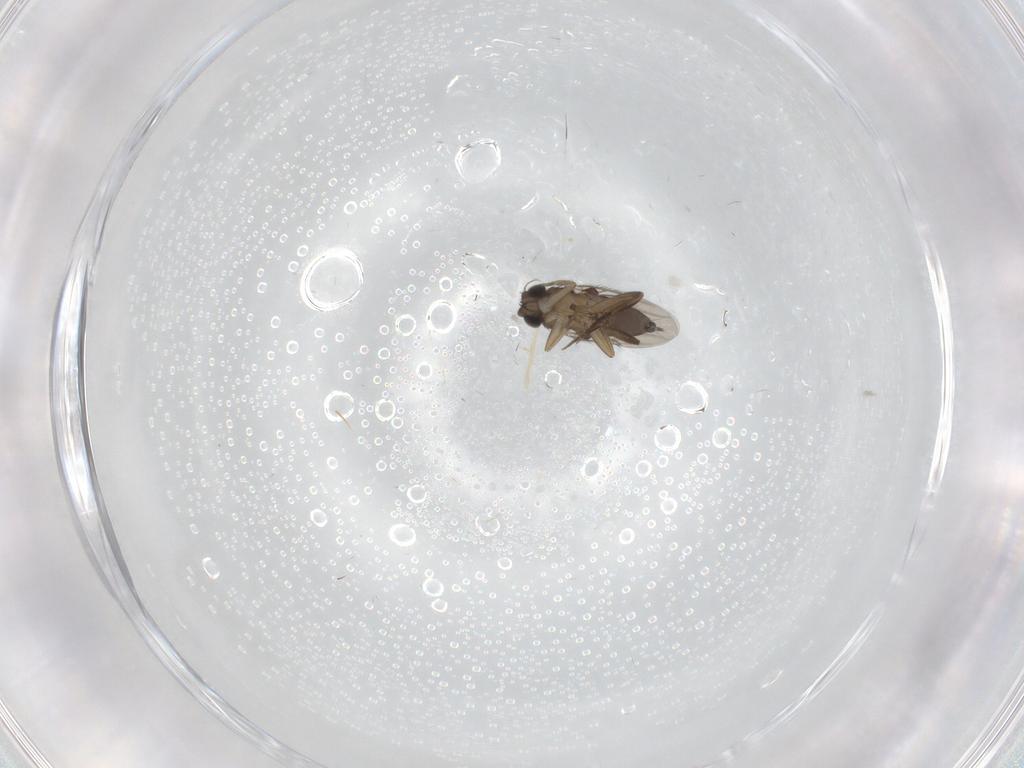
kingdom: Animalia
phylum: Arthropoda
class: Insecta
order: Diptera
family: Phoridae
